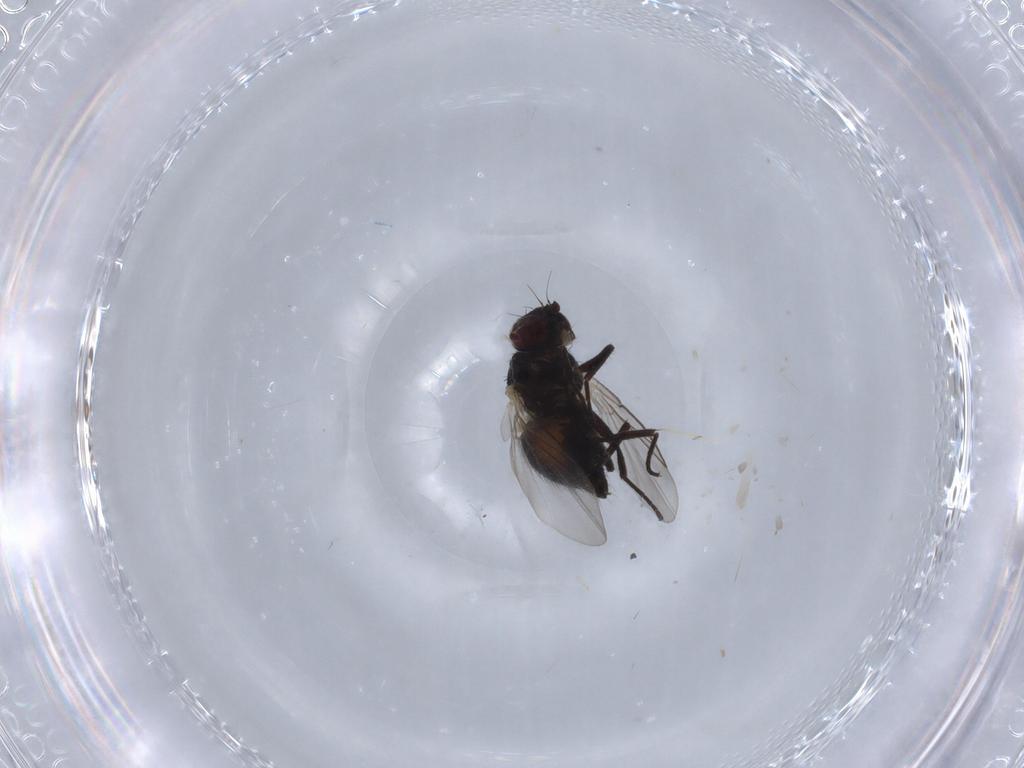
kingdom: Animalia
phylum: Arthropoda
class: Insecta
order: Diptera
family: Agromyzidae
